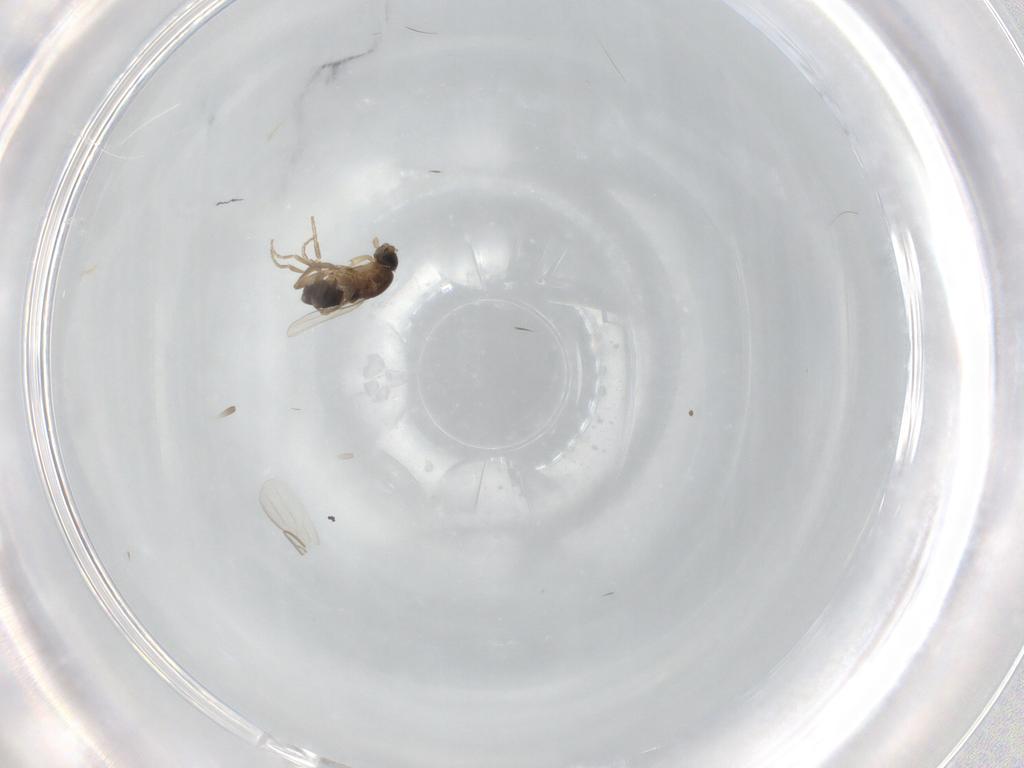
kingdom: Animalia
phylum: Arthropoda
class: Insecta
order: Diptera
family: Phoridae
